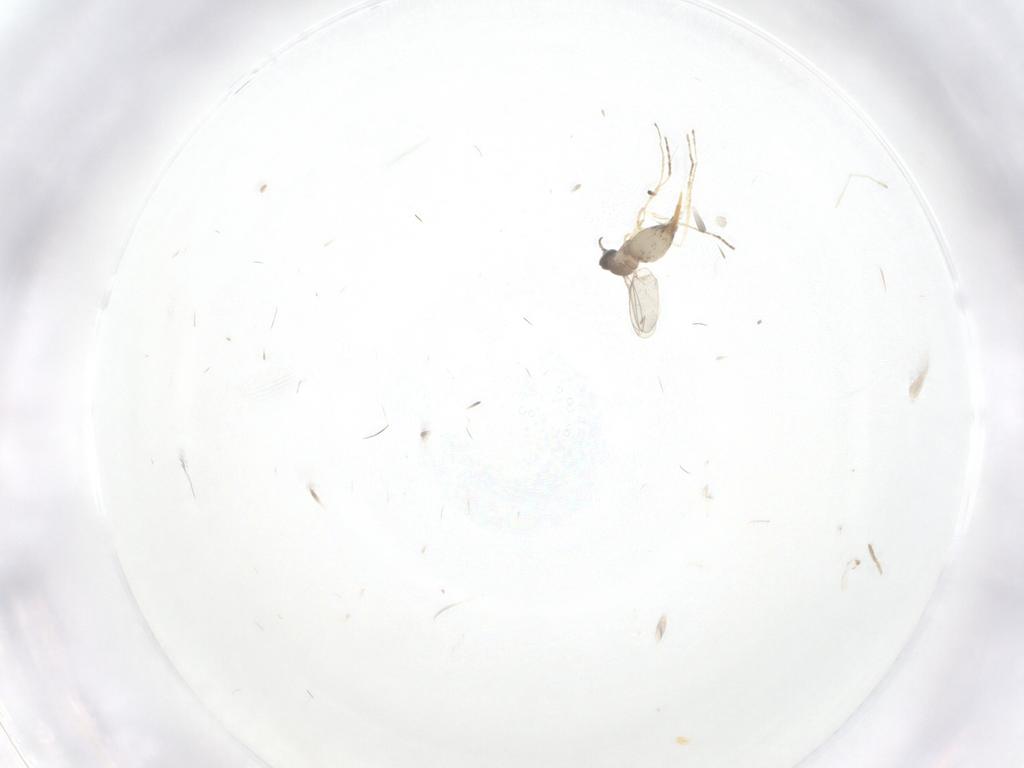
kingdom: Animalia
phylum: Arthropoda
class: Insecta
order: Diptera
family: Cecidomyiidae
